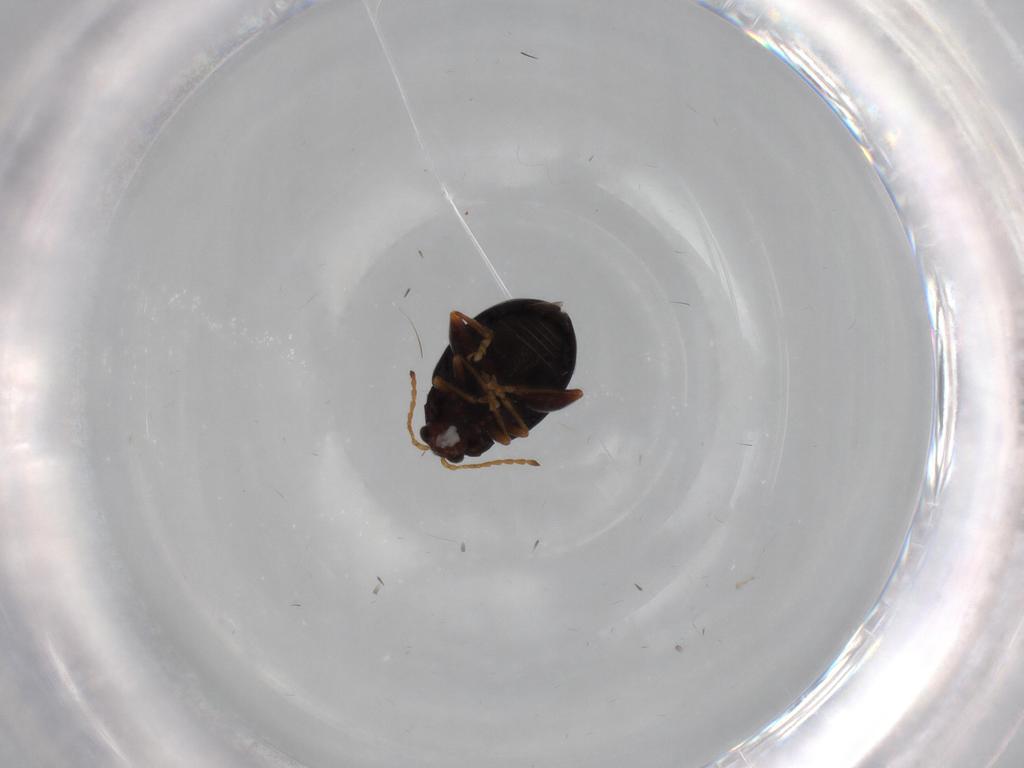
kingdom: Animalia
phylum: Arthropoda
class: Insecta
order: Coleoptera
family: Chrysomelidae
